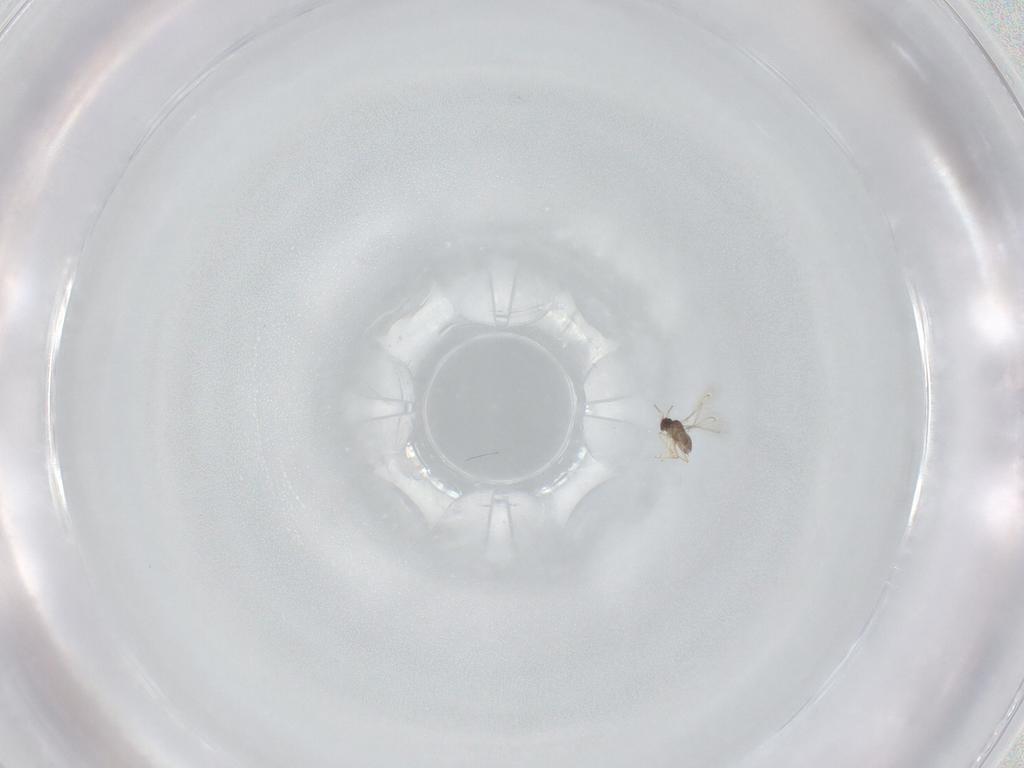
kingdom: Animalia
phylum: Arthropoda
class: Insecta
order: Hymenoptera
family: Mymaridae
